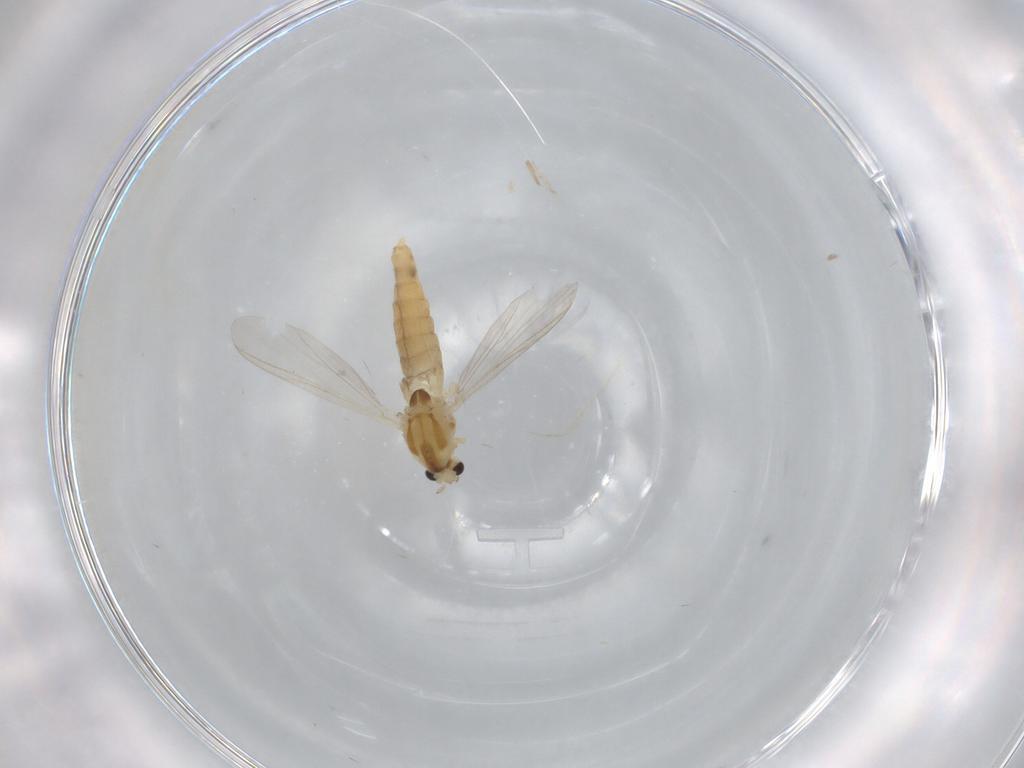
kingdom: Animalia
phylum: Arthropoda
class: Insecta
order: Diptera
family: Chironomidae
